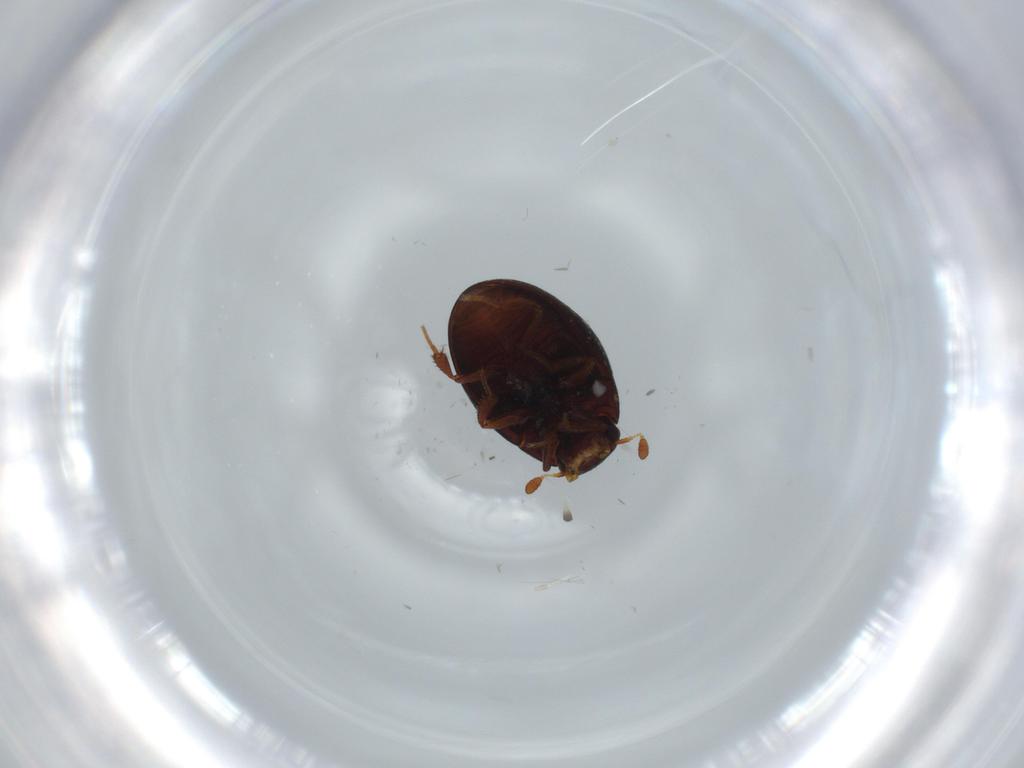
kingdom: Animalia
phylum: Arthropoda
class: Insecta
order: Coleoptera
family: Hydrophilidae
